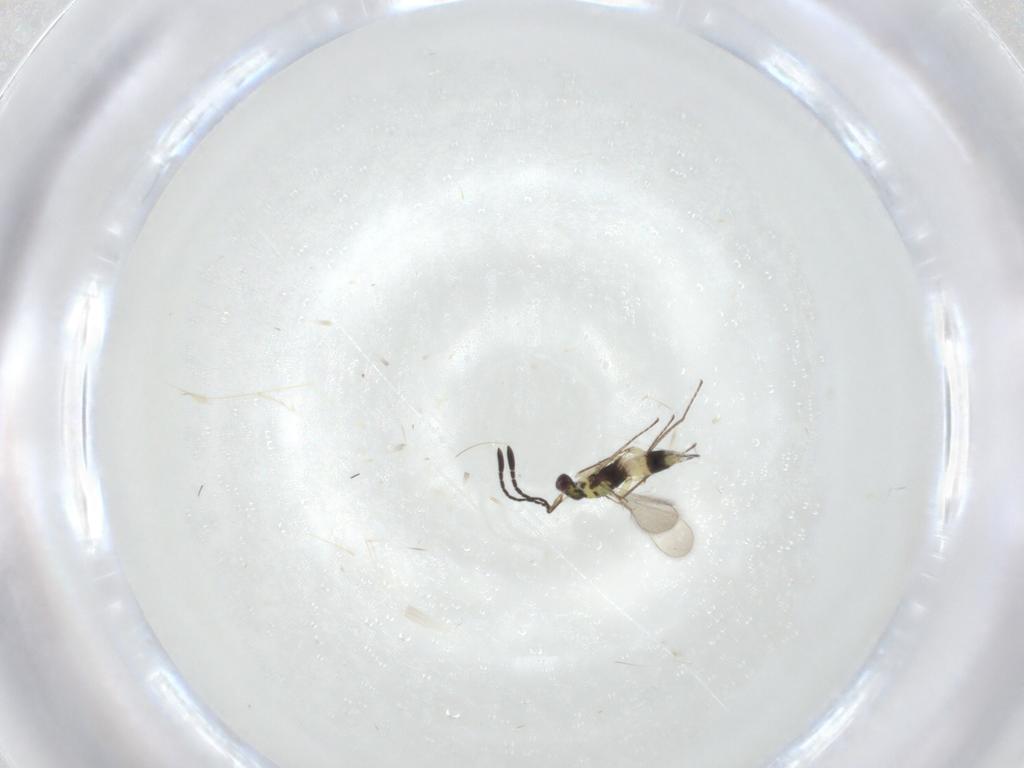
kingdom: Animalia
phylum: Arthropoda
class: Insecta
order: Hymenoptera
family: Mymaridae
